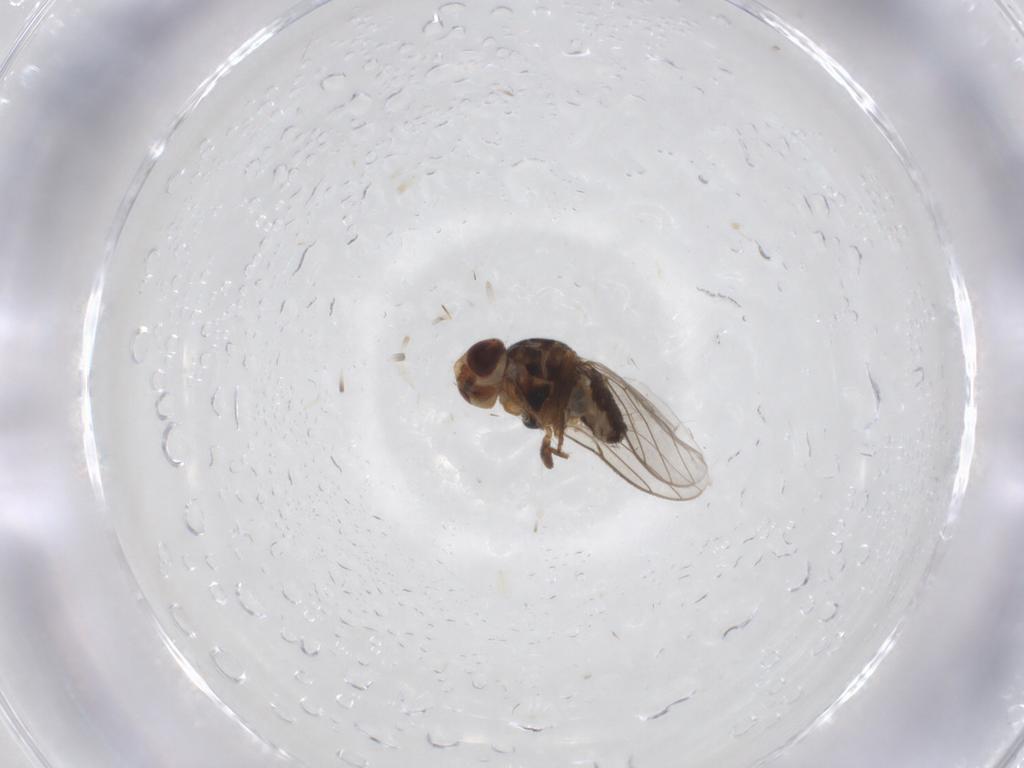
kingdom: Animalia
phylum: Arthropoda
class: Insecta
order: Diptera
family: Chloropidae
